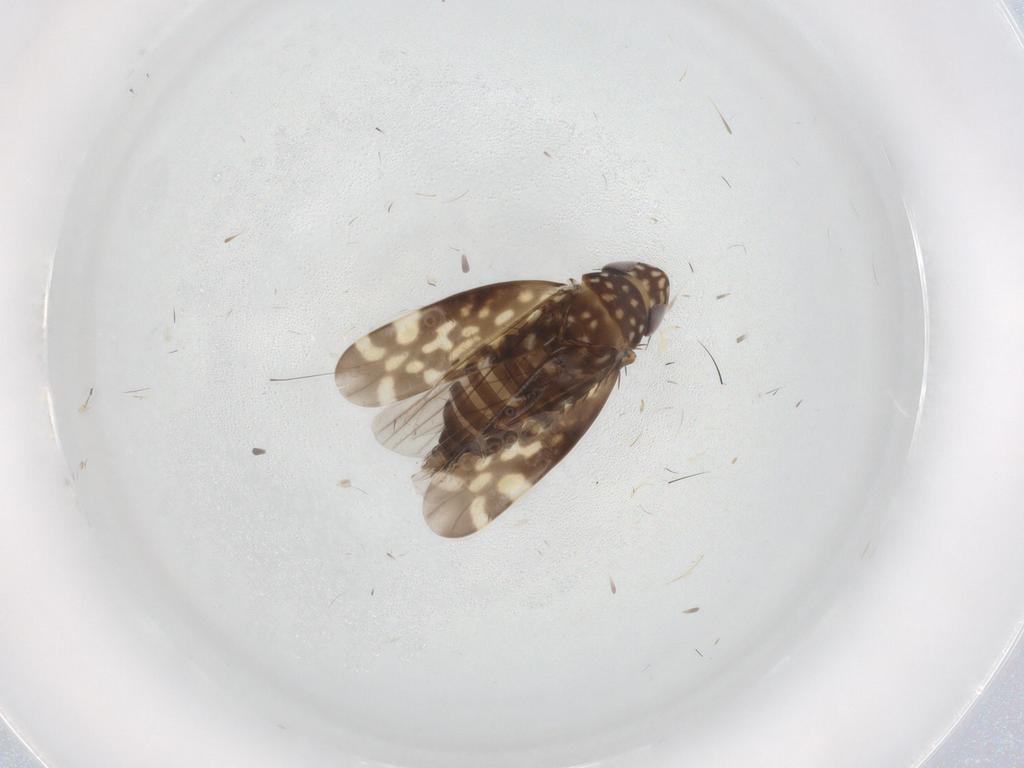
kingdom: Animalia
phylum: Arthropoda
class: Insecta
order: Hemiptera
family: Cicadellidae
